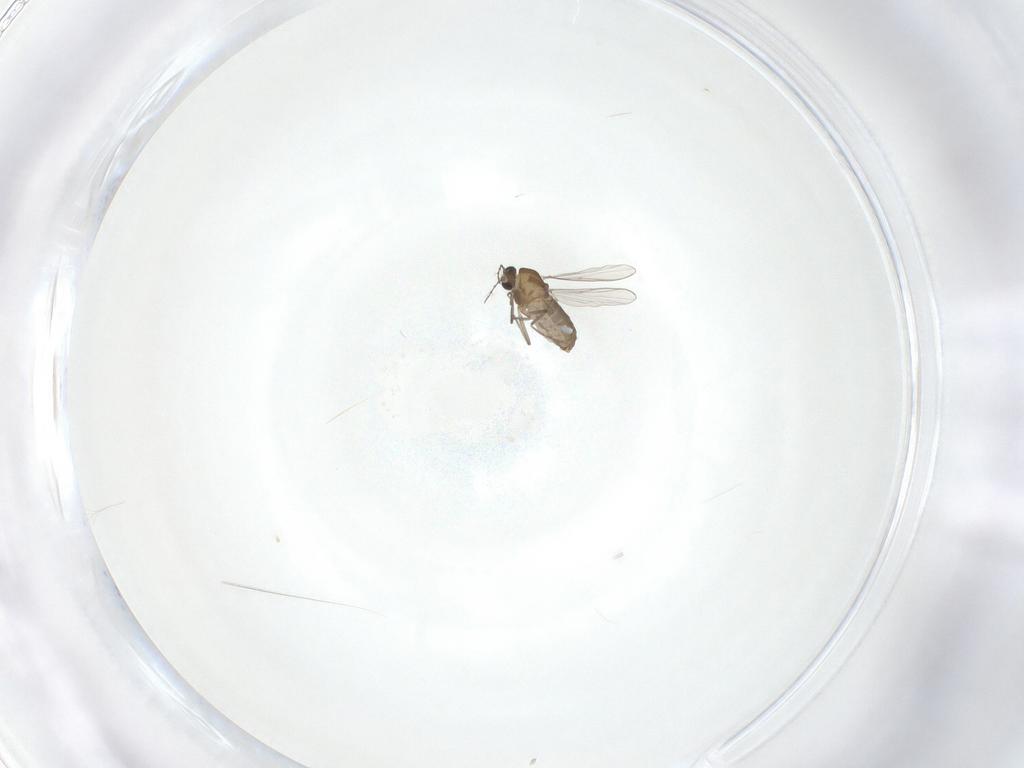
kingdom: Animalia
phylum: Arthropoda
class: Insecta
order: Diptera
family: Chironomidae
